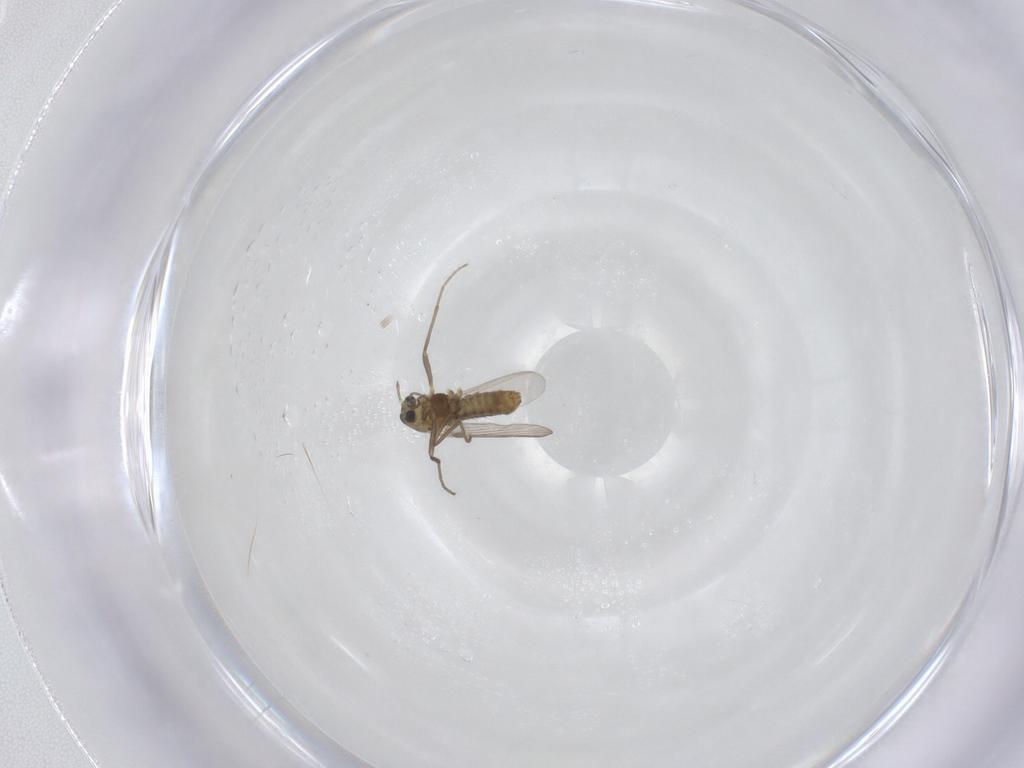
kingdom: Animalia
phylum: Arthropoda
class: Insecta
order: Diptera
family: Chironomidae
